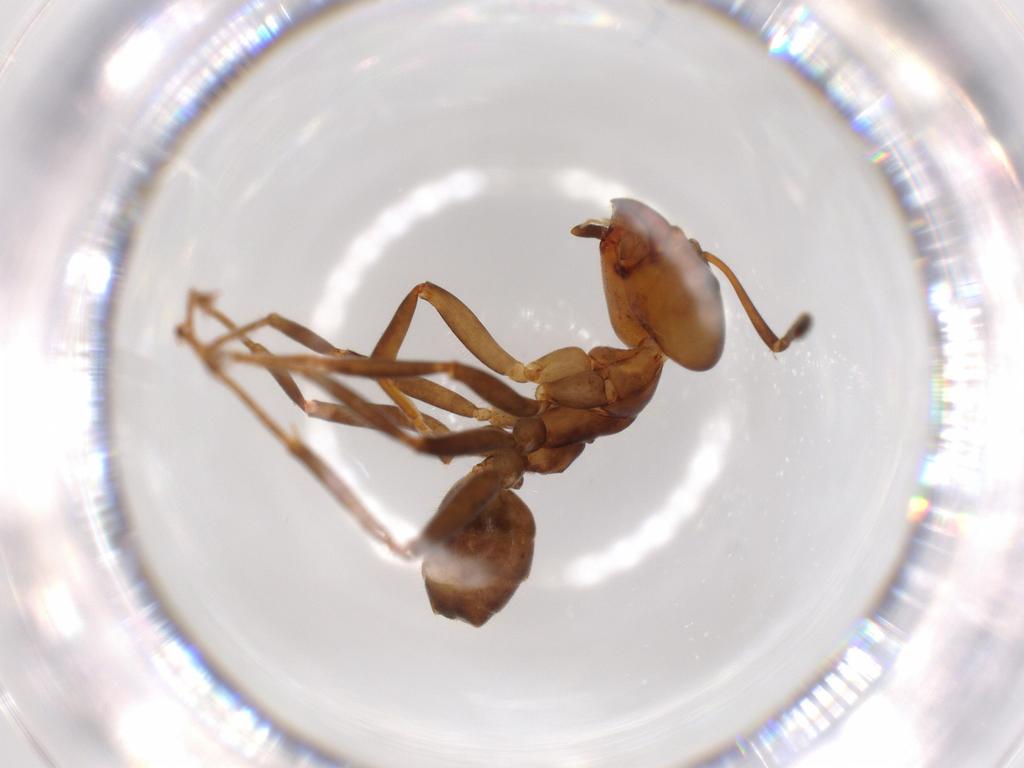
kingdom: Animalia
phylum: Arthropoda
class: Insecta
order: Hymenoptera
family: Formicidae
